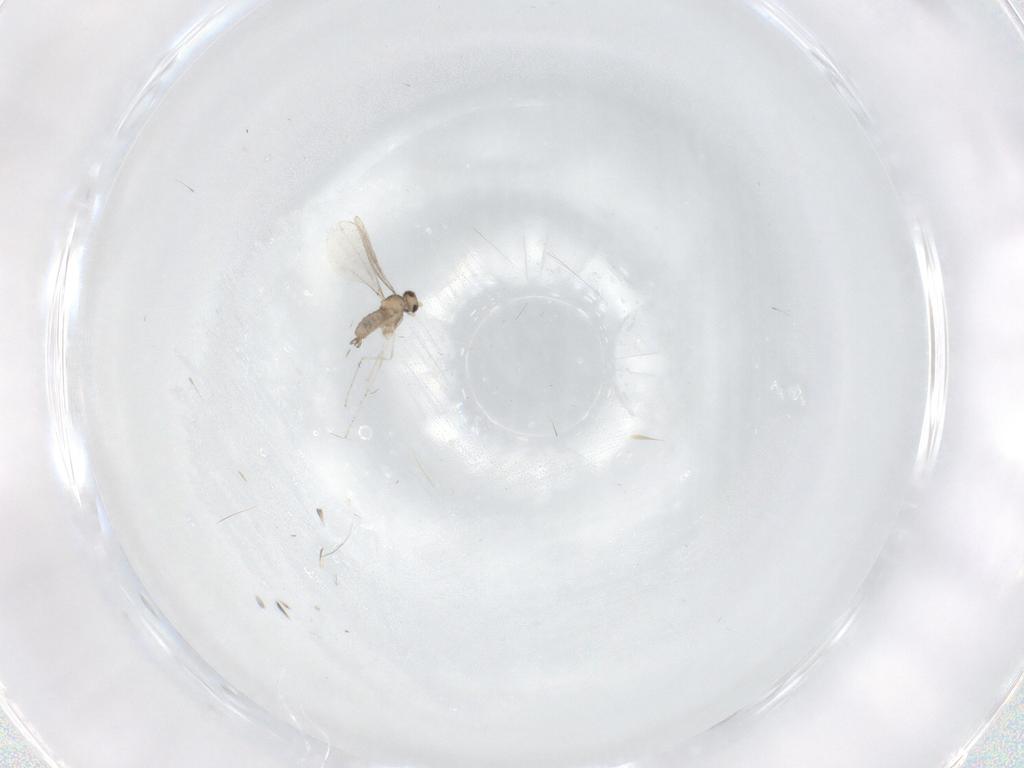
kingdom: Animalia
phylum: Arthropoda
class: Insecta
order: Diptera
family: Cecidomyiidae
